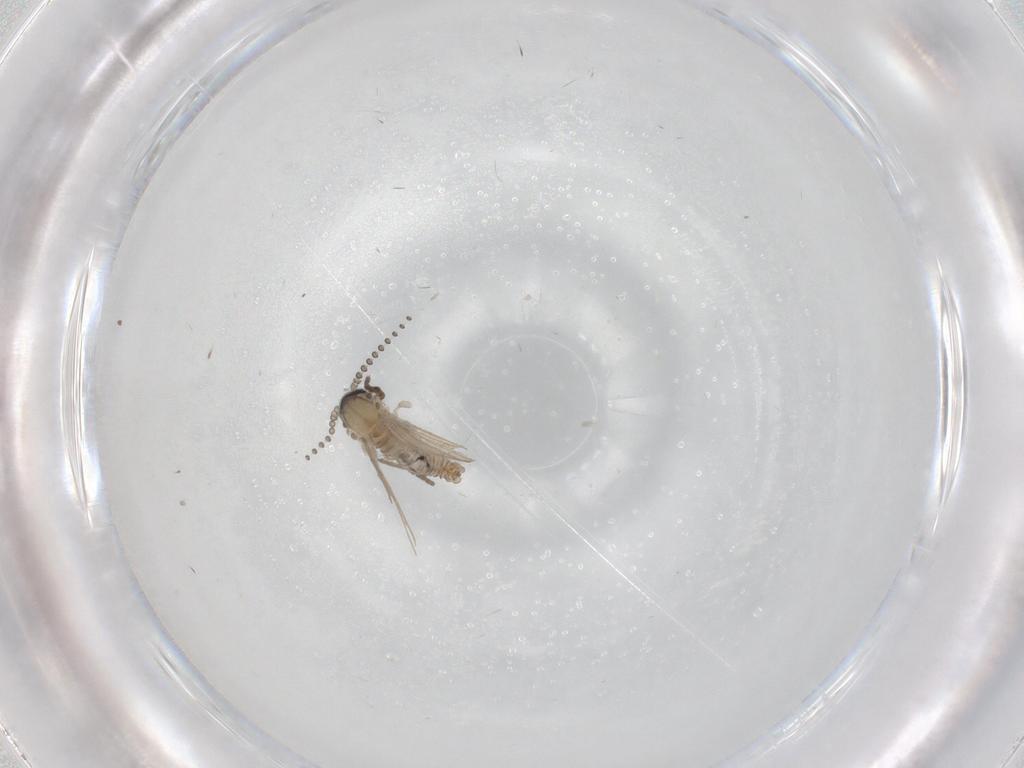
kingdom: Animalia
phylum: Arthropoda
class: Insecta
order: Diptera
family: Psychodidae
